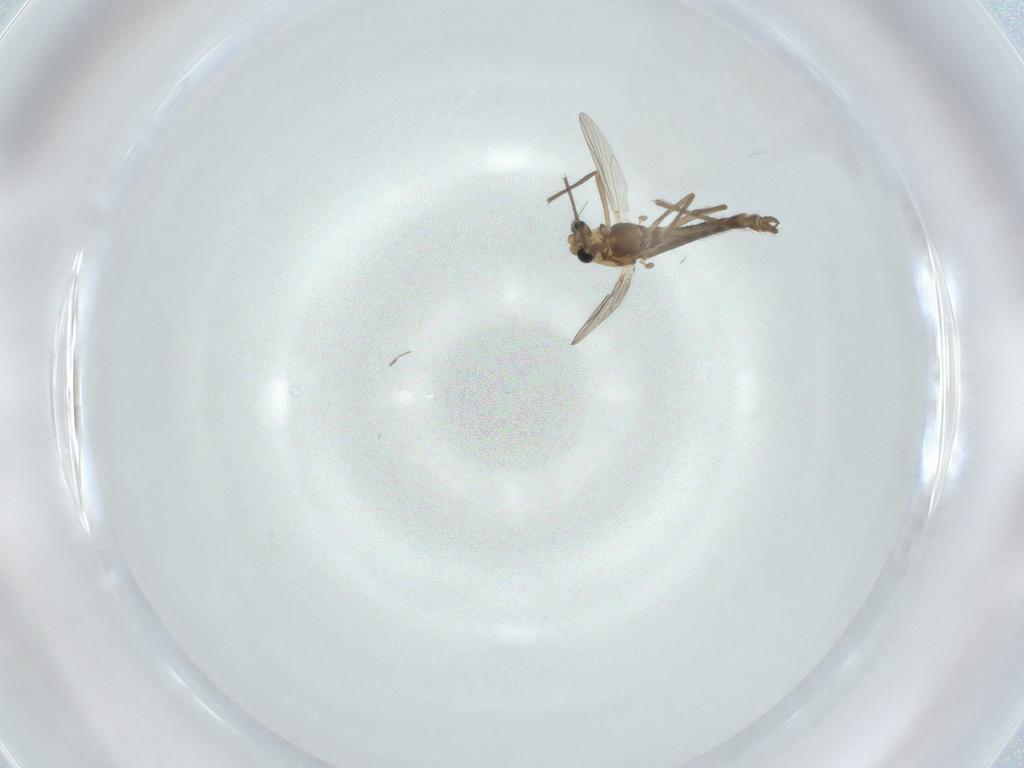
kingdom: Animalia
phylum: Arthropoda
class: Insecta
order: Diptera
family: Chironomidae
